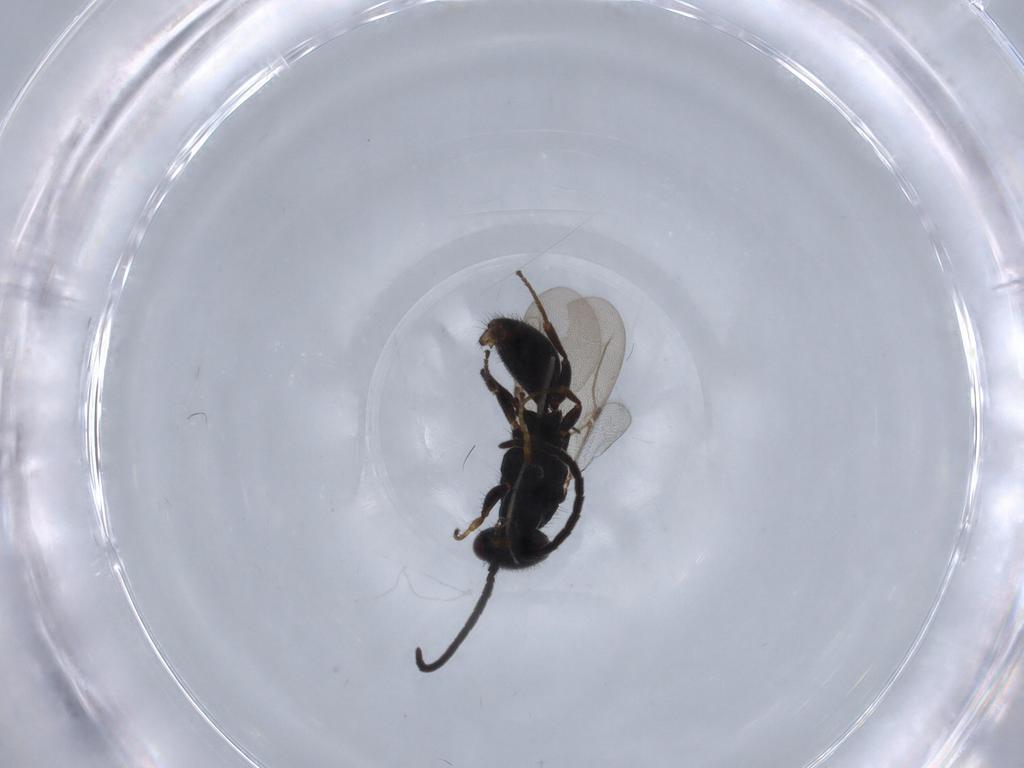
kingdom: Animalia
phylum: Arthropoda
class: Insecta
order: Hymenoptera
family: Bethylidae
